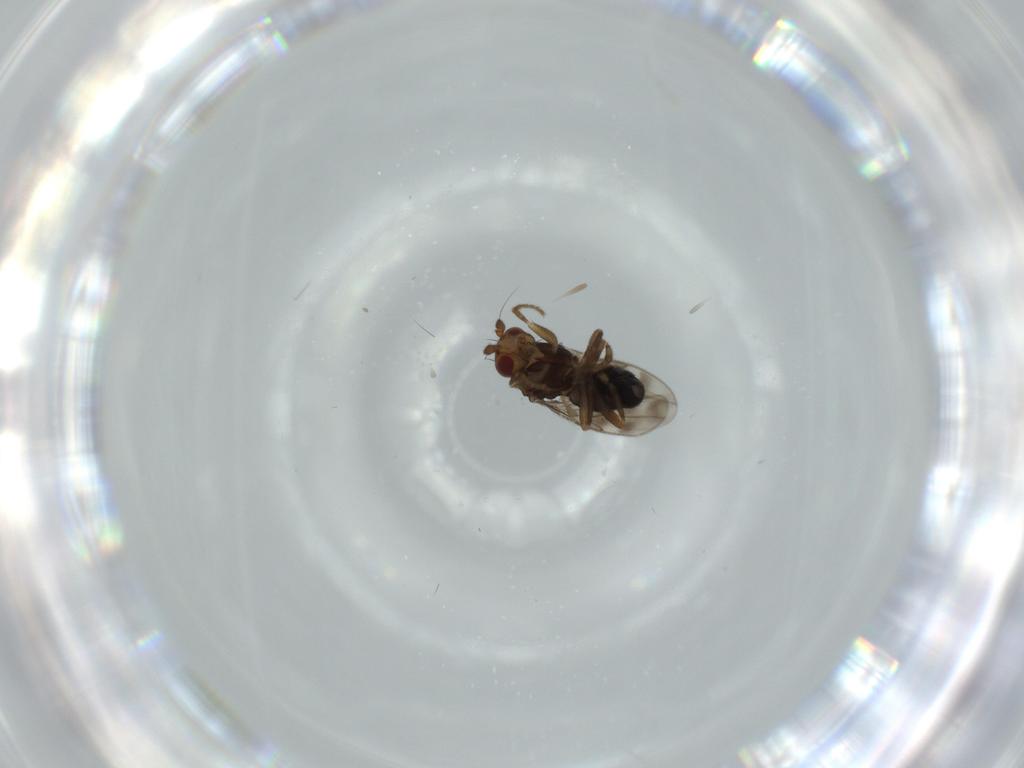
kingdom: Animalia
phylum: Arthropoda
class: Insecta
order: Diptera
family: Sphaeroceridae
